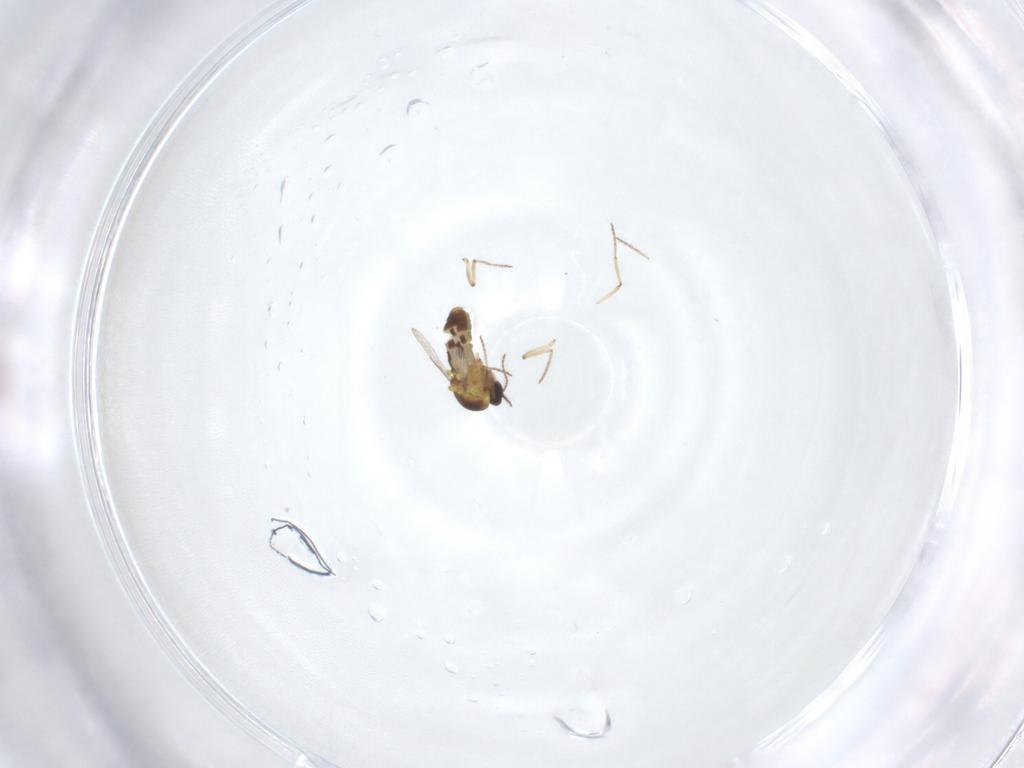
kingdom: Animalia
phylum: Arthropoda
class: Insecta
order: Diptera
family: Ceratopogonidae
